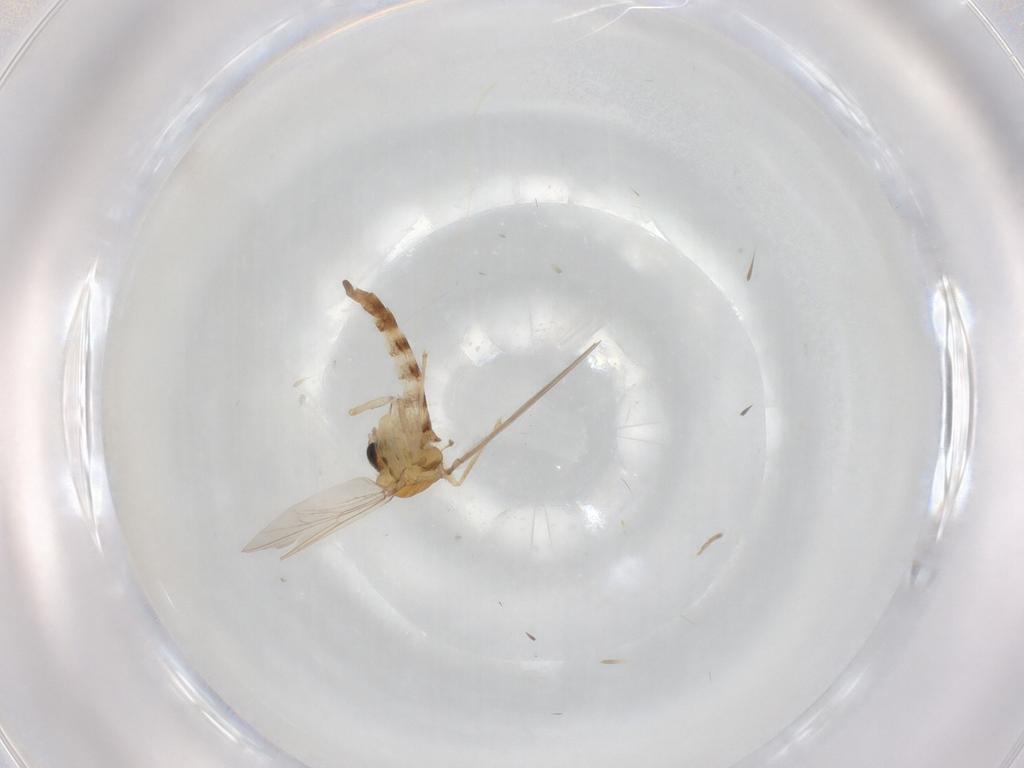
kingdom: Animalia
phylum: Arthropoda
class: Insecta
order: Diptera
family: Chironomidae
